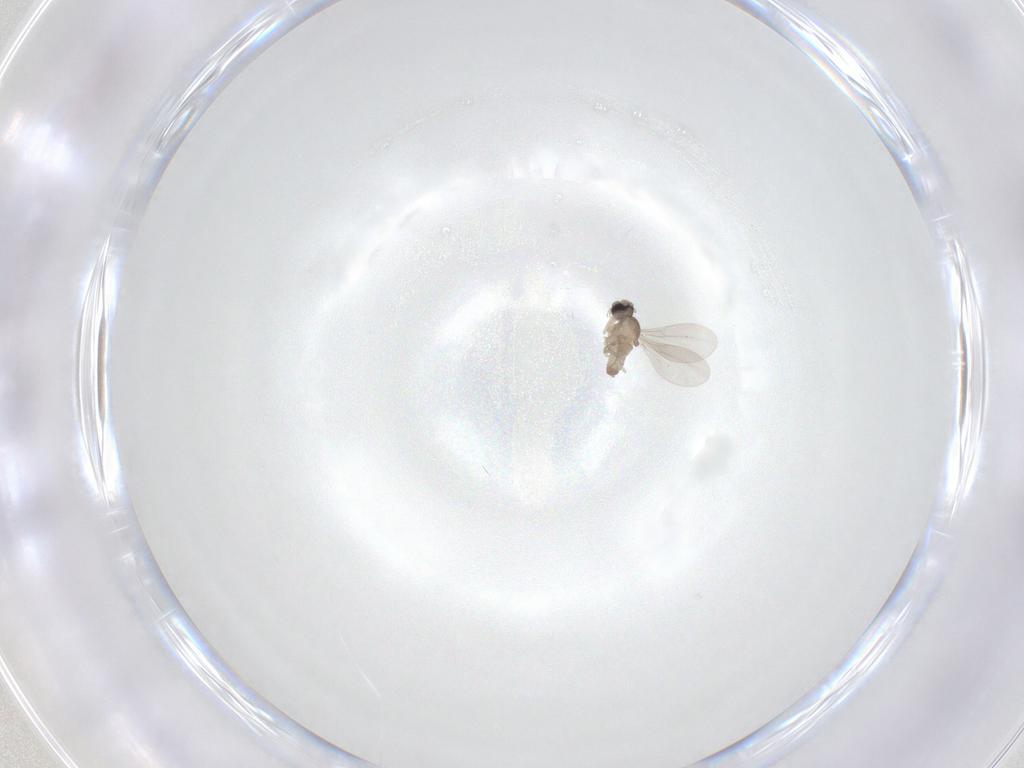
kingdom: Animalia
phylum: Arthropoda
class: Insecta
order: Diptera
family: Cecidomyiidae
